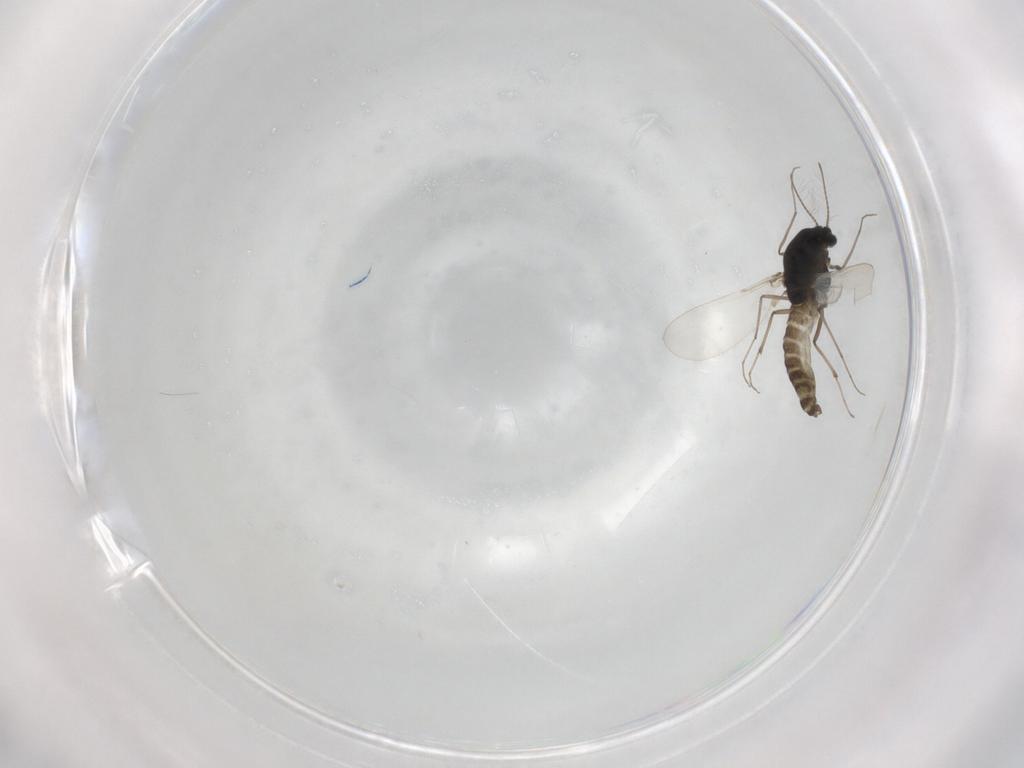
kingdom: Animalia
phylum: Arthropoda
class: Insecta
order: Diptera
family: Chironomidae
